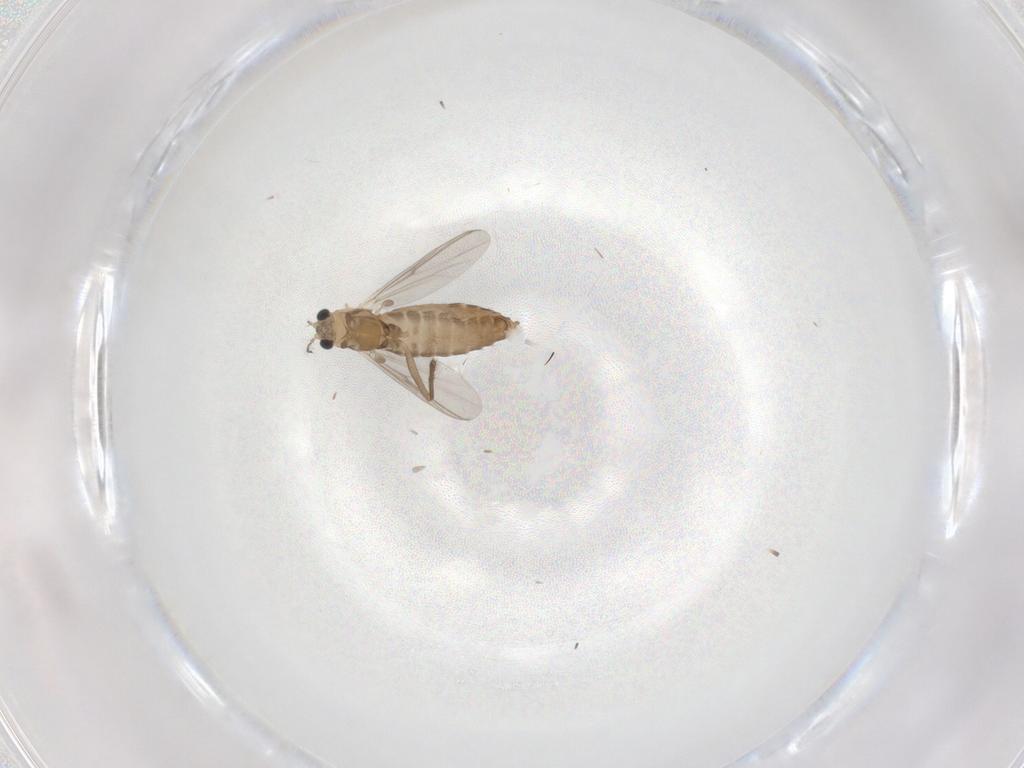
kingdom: Animalia
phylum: Arthropoda
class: Insecta
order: Diptera
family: Chironomidae
